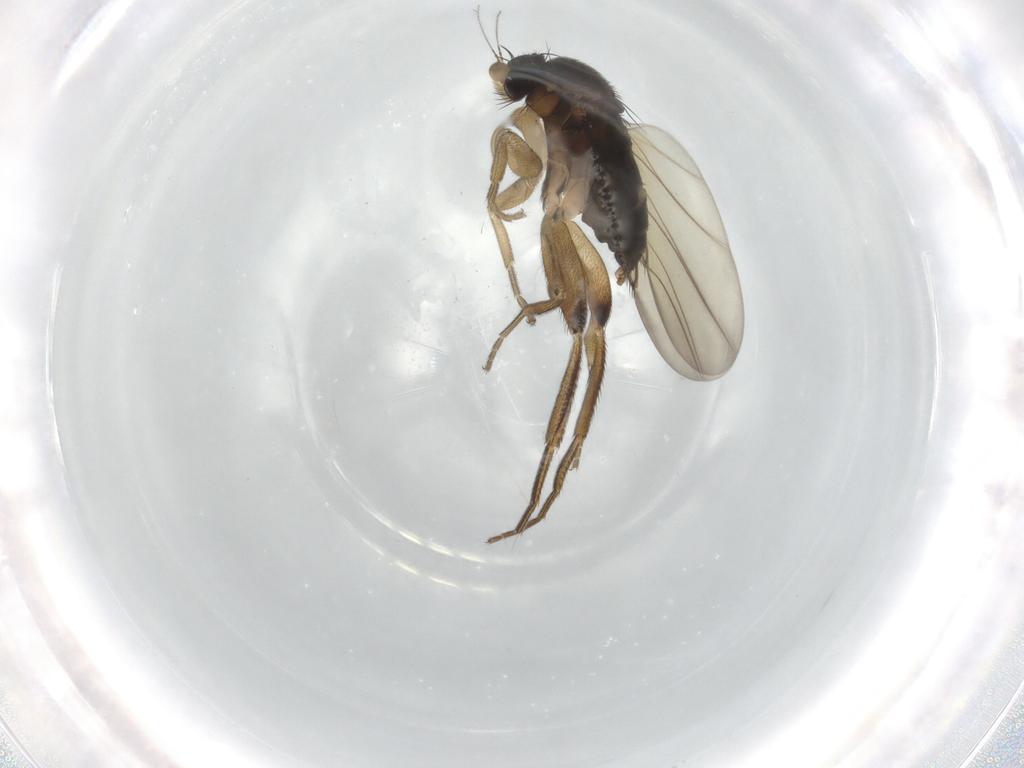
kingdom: Animalia
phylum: Arthropoda
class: Insecta
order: Diptera
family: Phoridae
